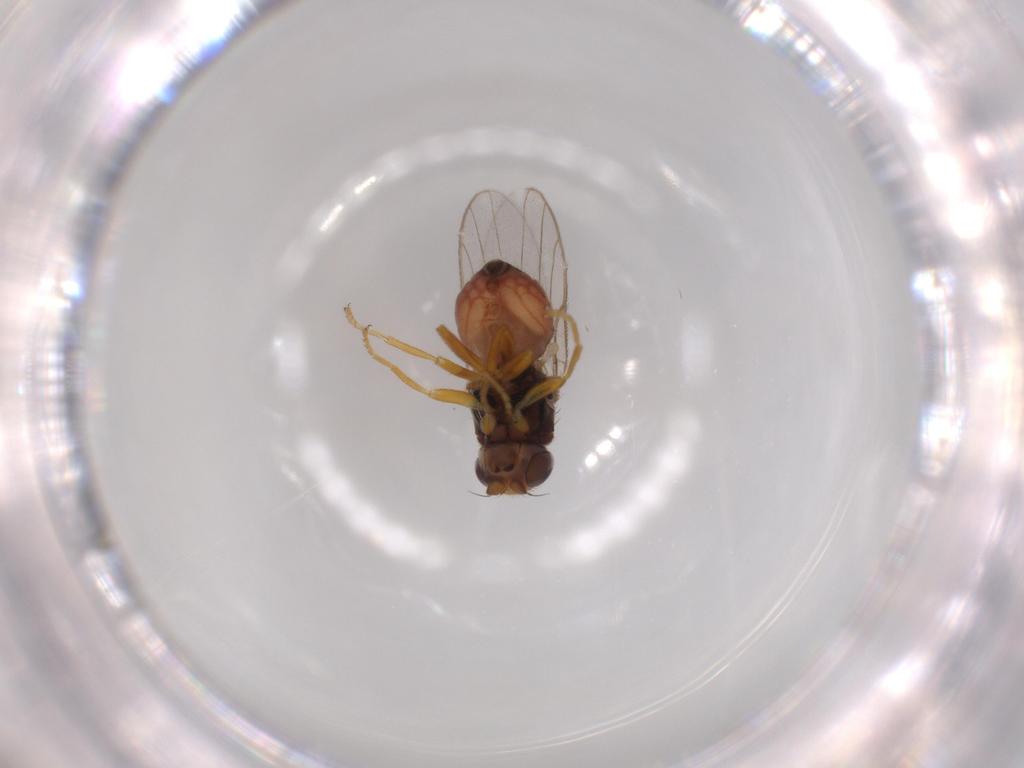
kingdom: Animalia
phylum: Arthropoda
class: Insecta
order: Diptera
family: Chloropidae
